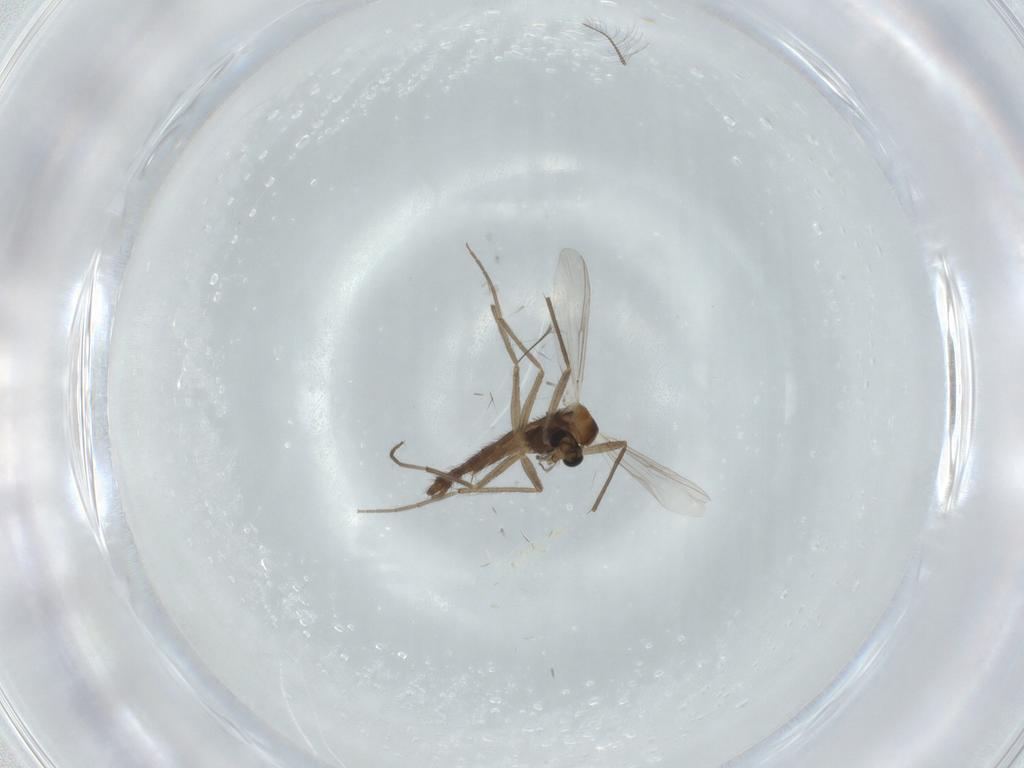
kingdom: Animalia
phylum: Arthropoda
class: Insecta
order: Diptera
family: Chironomidae
